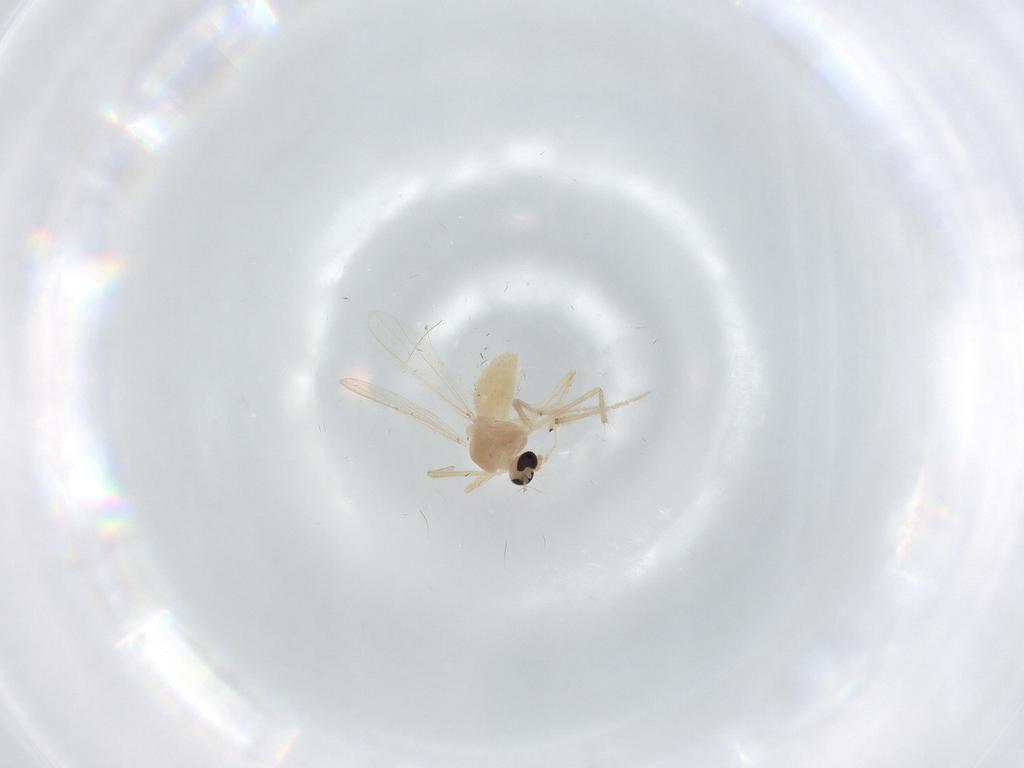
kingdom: Animalia
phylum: Arthropoda
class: Insecta
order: Diptera
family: Chironomidae
